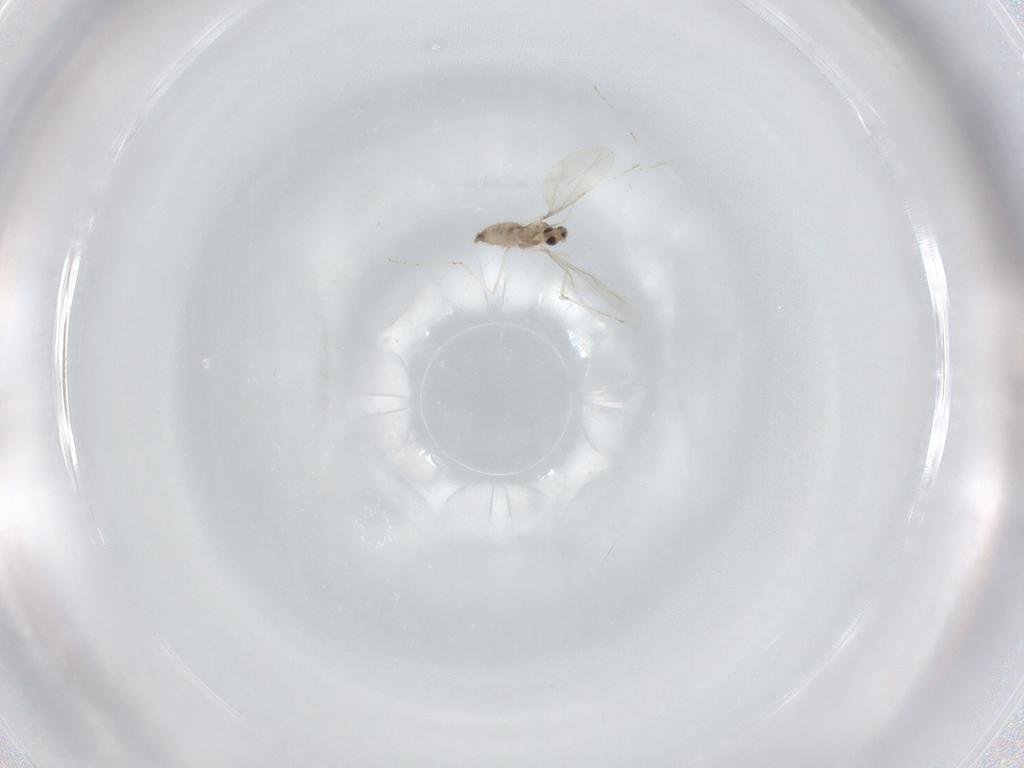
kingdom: Animalia
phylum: Arthropoda
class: Insecta
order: Diptera
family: Cecidomyiidae
